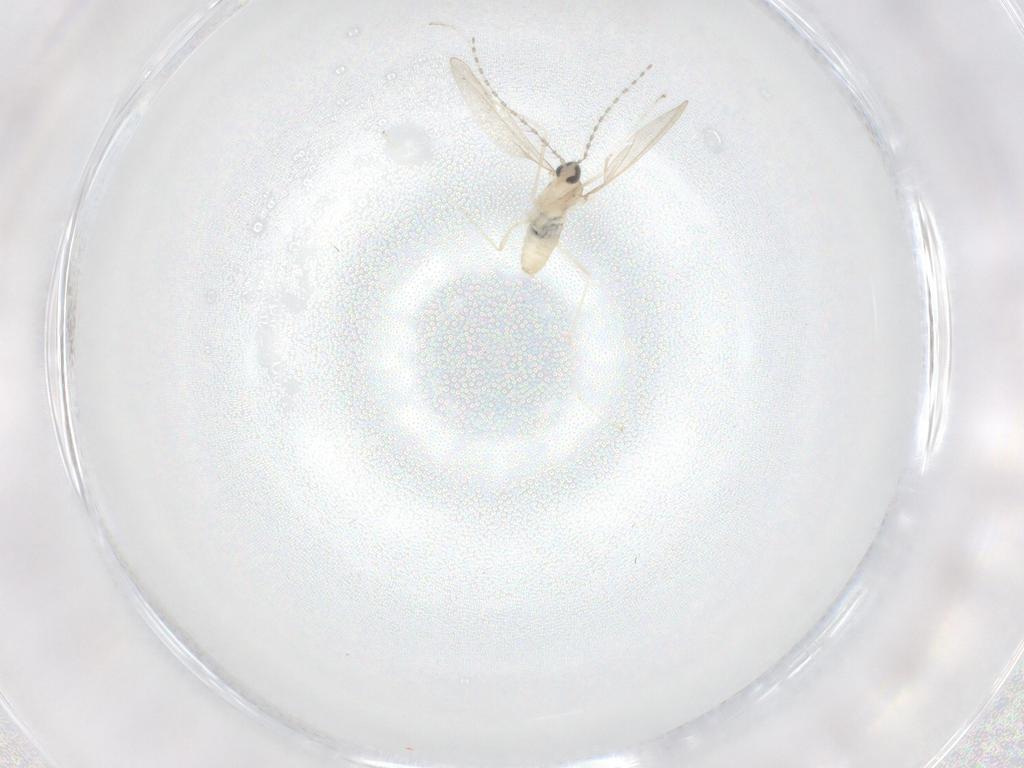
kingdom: Animalia
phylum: Arthropoda
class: Insecta
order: Diptera
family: Cecidomyiidae
